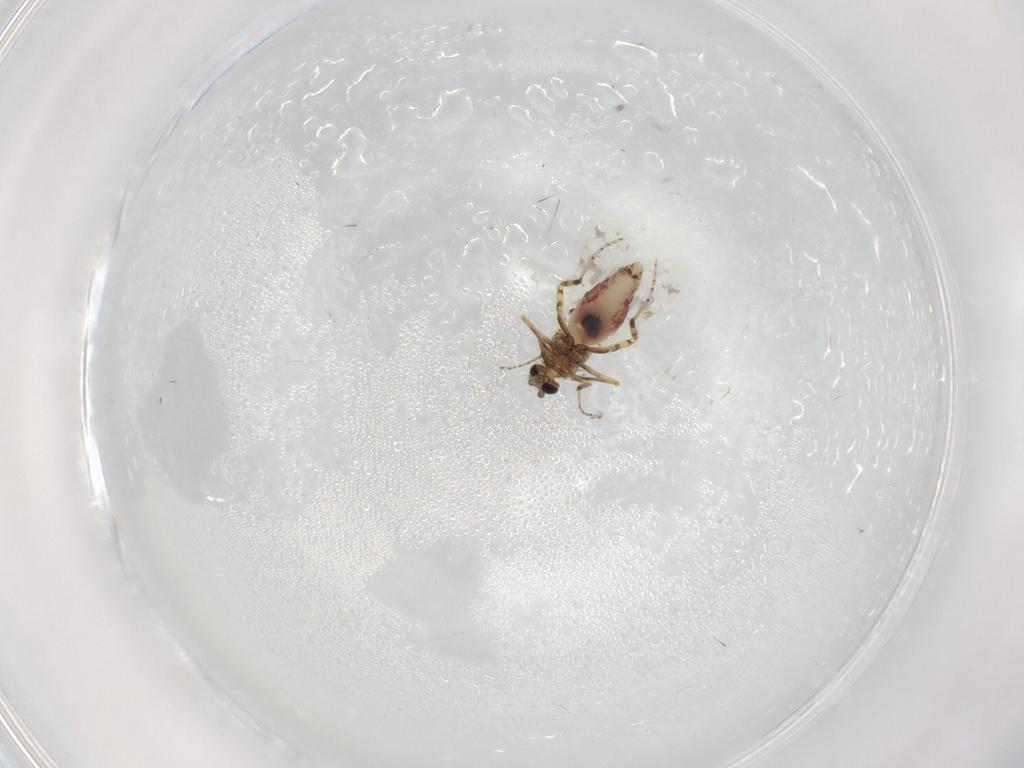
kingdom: Animalia
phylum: Arthropoda
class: Insecta
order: Diptera
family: Ceratopogonidae
